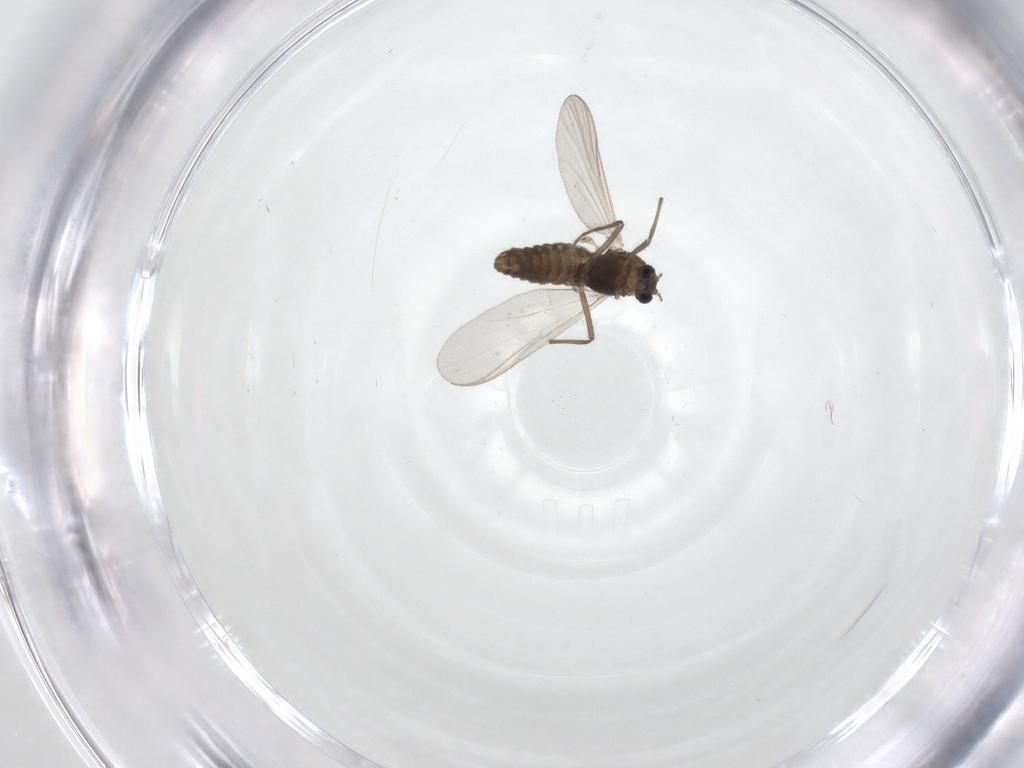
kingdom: Animalia
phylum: Arthropoda
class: Insecta
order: Diptera
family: Chironomidae
